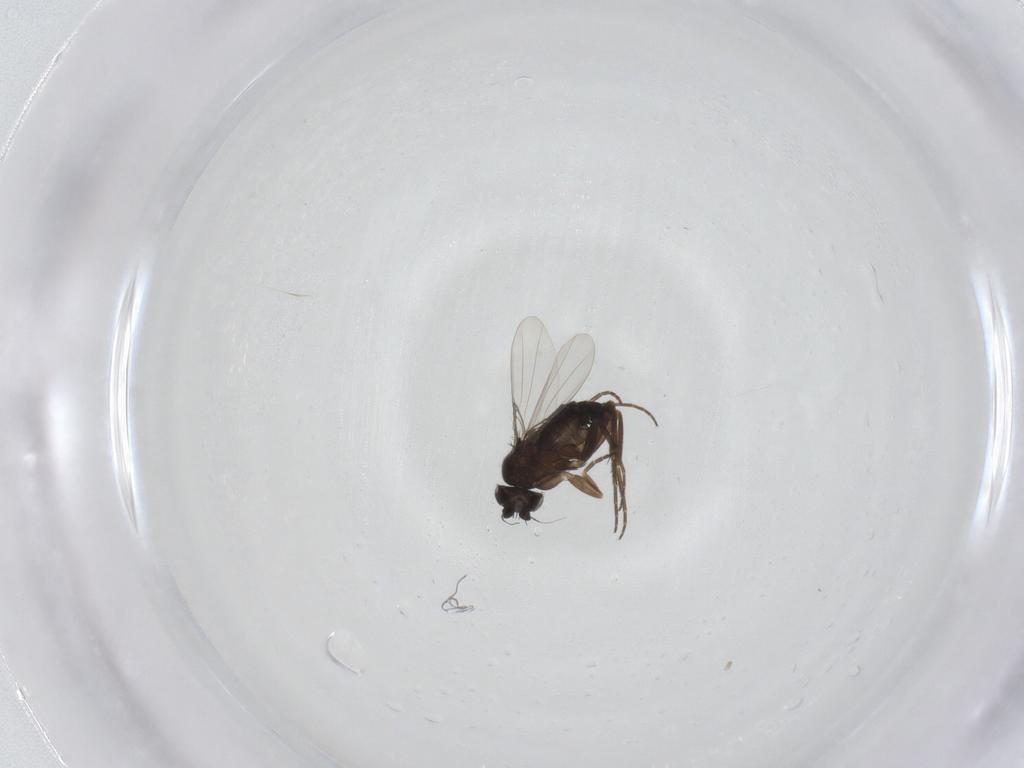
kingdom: Animalia
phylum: Arthropoda
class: Insecta
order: Diptera
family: Phoridae
